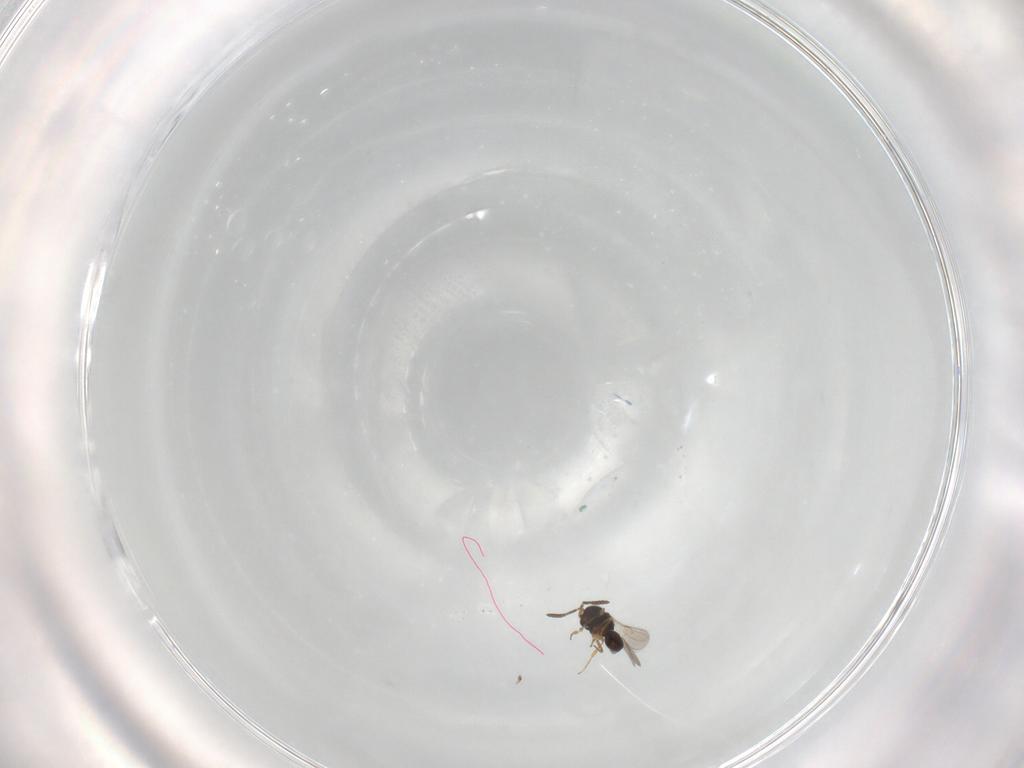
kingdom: Animalia
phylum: Arthropoda
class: Insecta
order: Hymenoptera
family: Scelionidae
